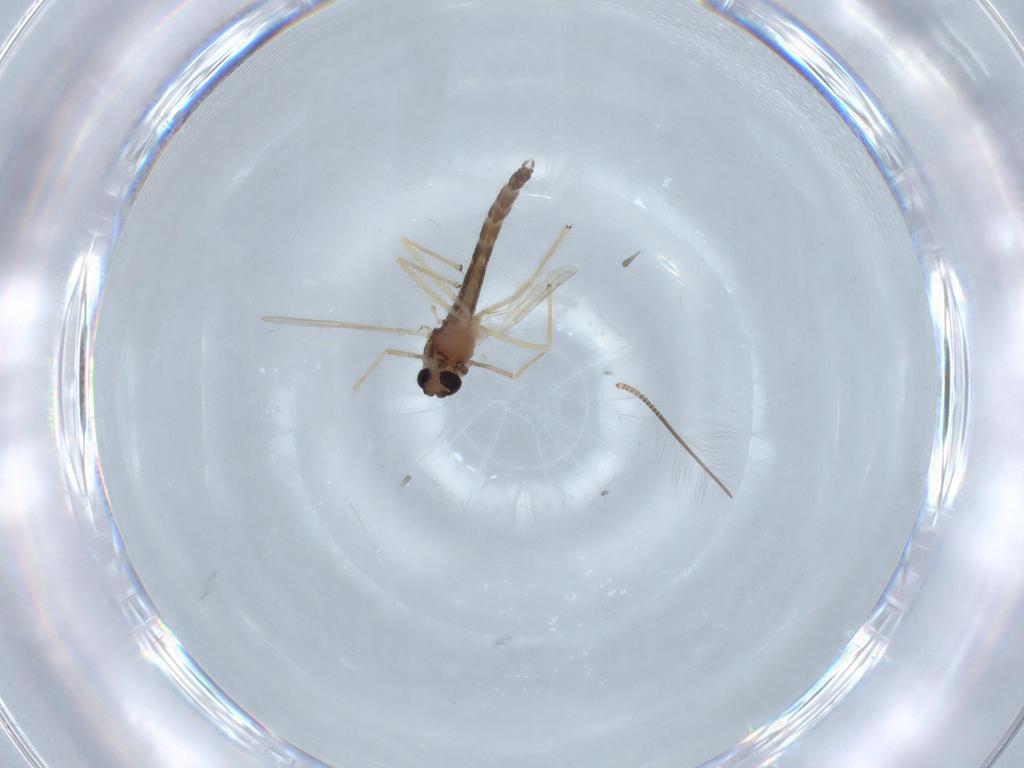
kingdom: Animalia
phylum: Arthropoda
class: Insecta
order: Diptera
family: Chironomidae
